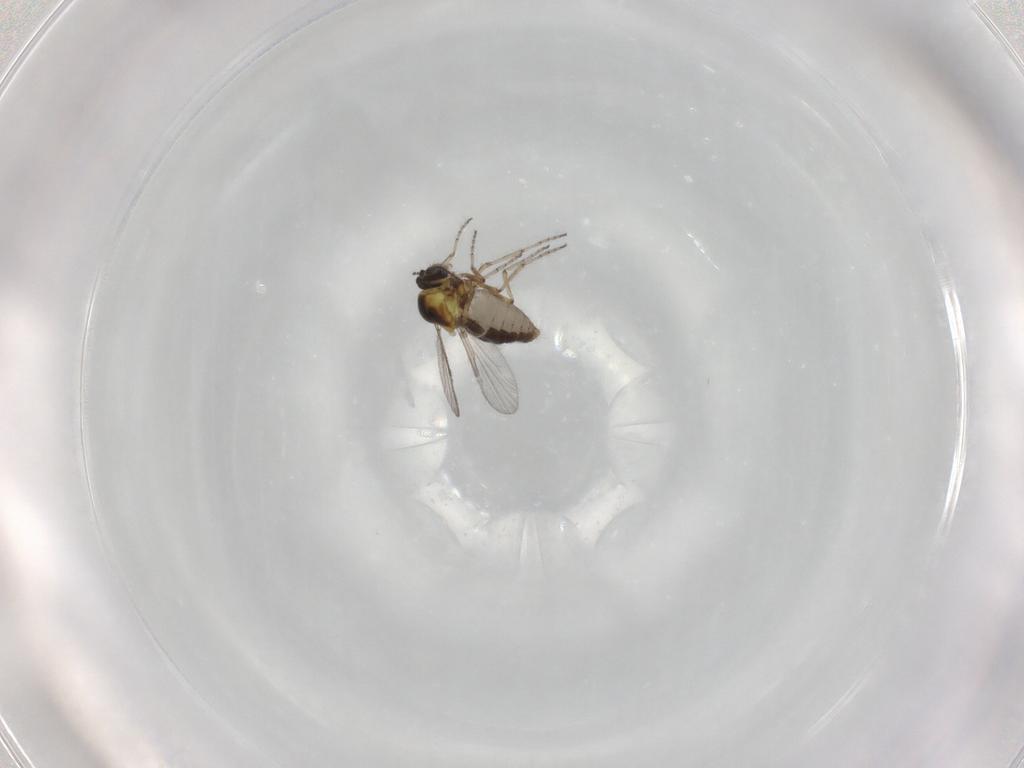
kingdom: Animalia
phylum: Arthropoda
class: Insecta
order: Diptera
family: Ceratopogonidae
